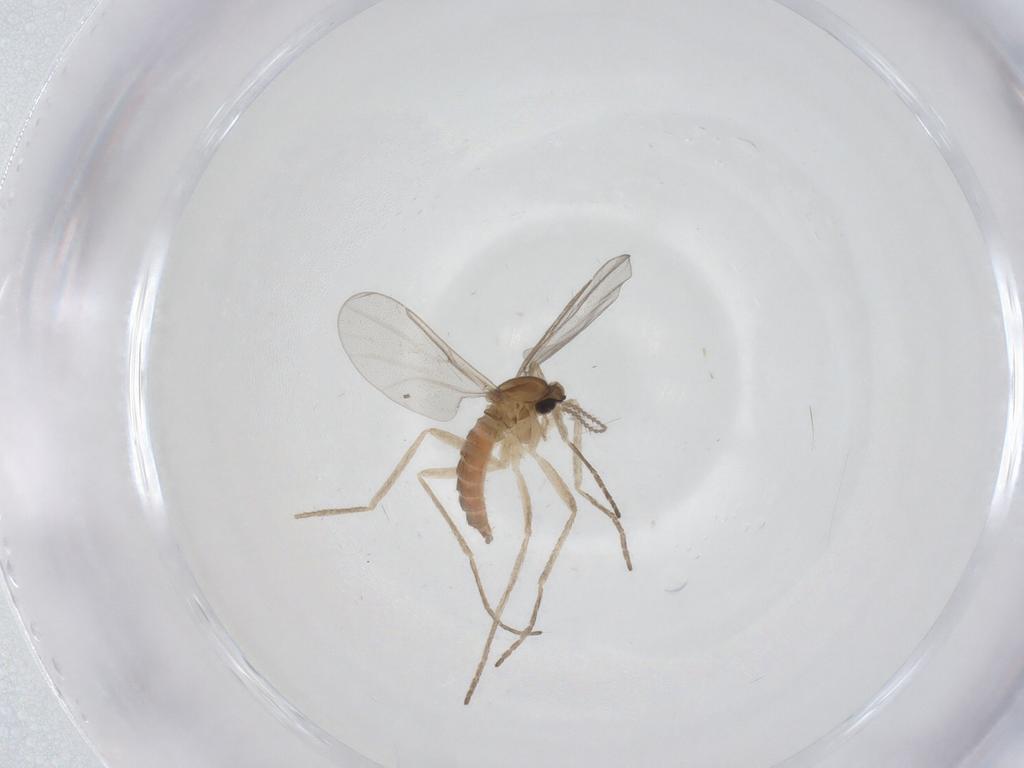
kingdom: Animalia
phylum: Arthropoda
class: Insecta
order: Diptera
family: Cecidomyiidae
